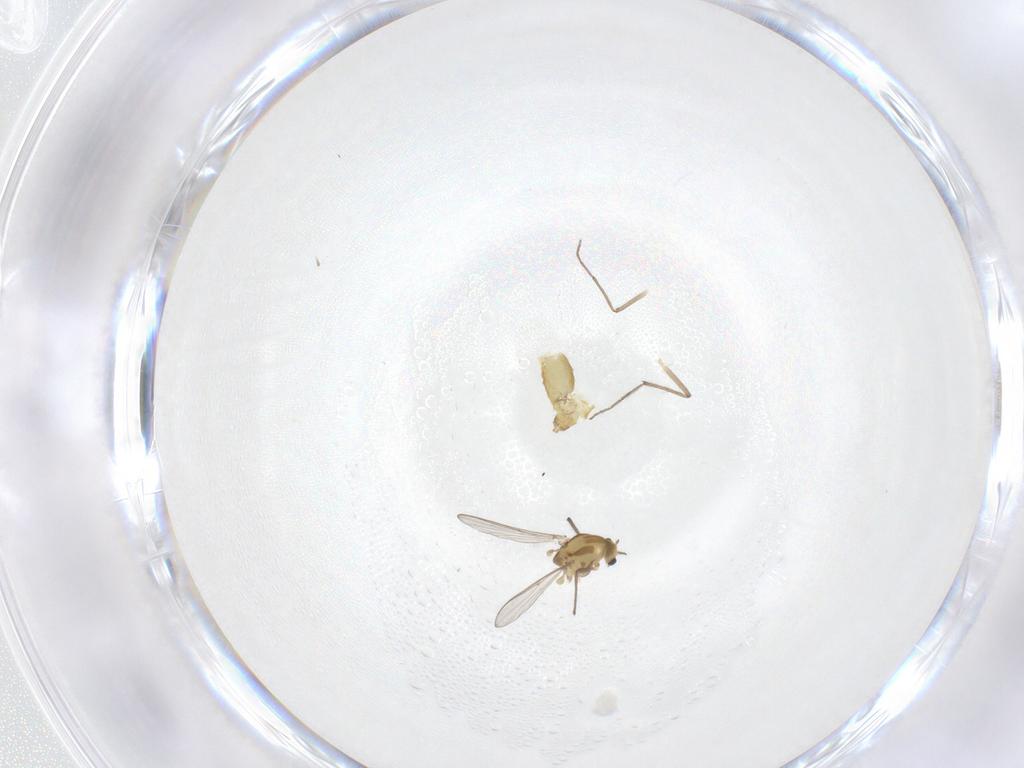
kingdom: Animalia
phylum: Arthropoda
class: Insecta
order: Diptera
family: Chironomidae
